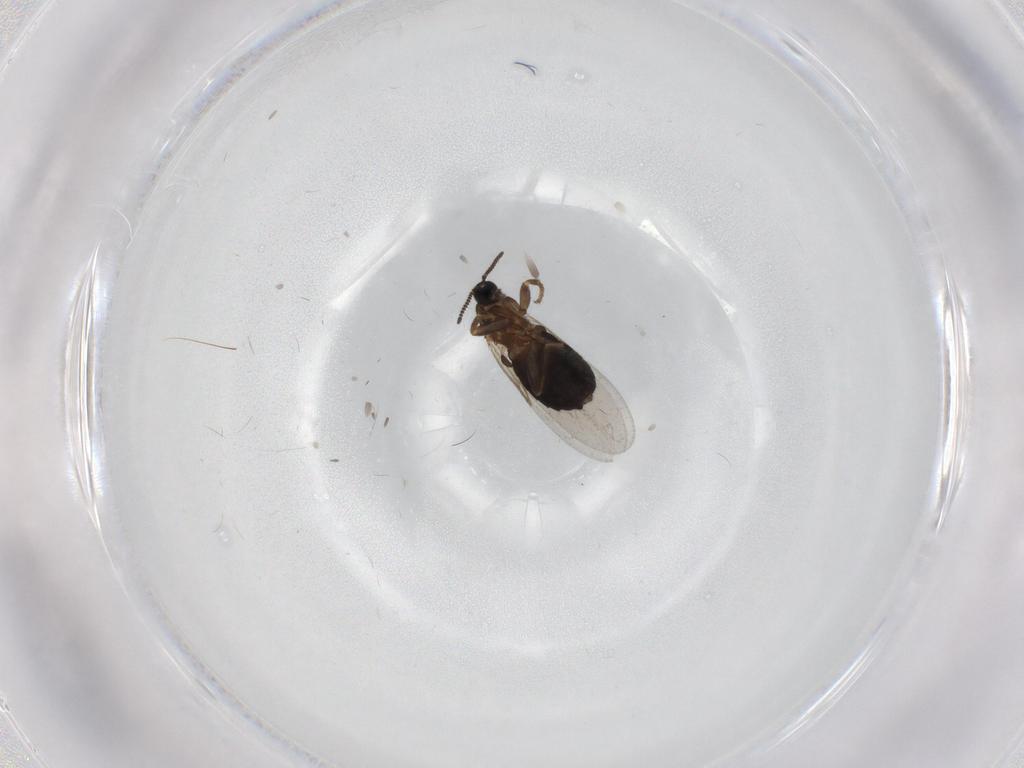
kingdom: Animalia
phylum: Arthropoda
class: Insecta
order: Diptera
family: Scatopsidae
